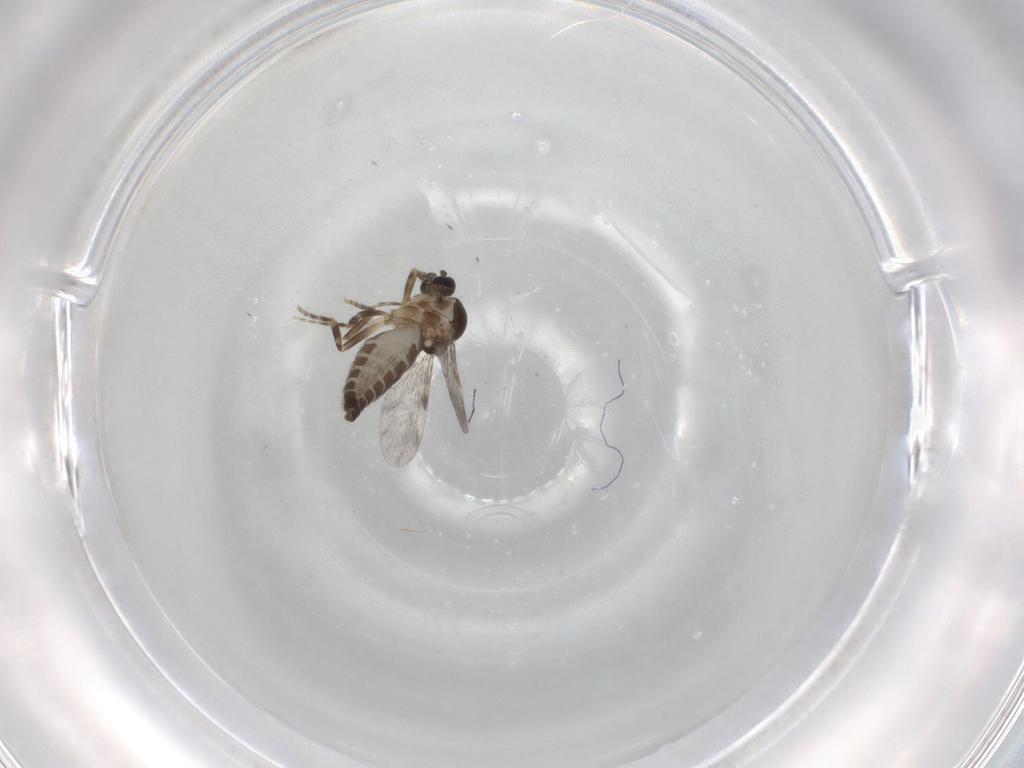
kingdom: Animalia
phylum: Arthropoda
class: Insecta
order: Diptera
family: Ceratopogonidae
